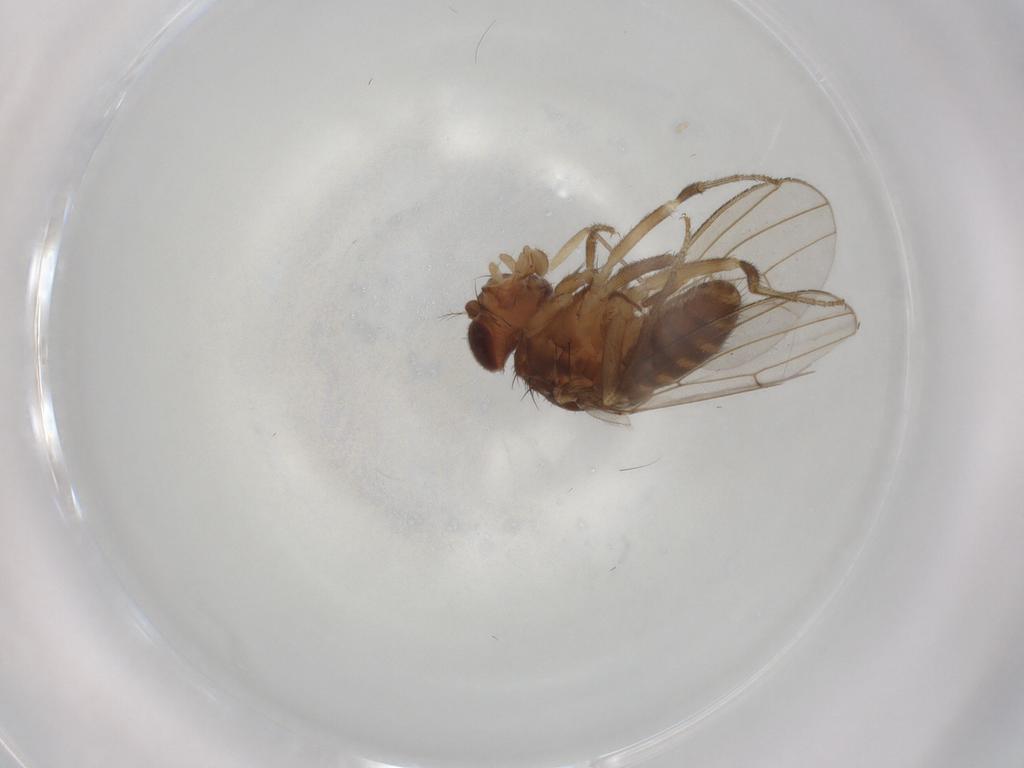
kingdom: Animalia
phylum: Arthropoda
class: Insecta
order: Diptera
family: Drosophilidae
